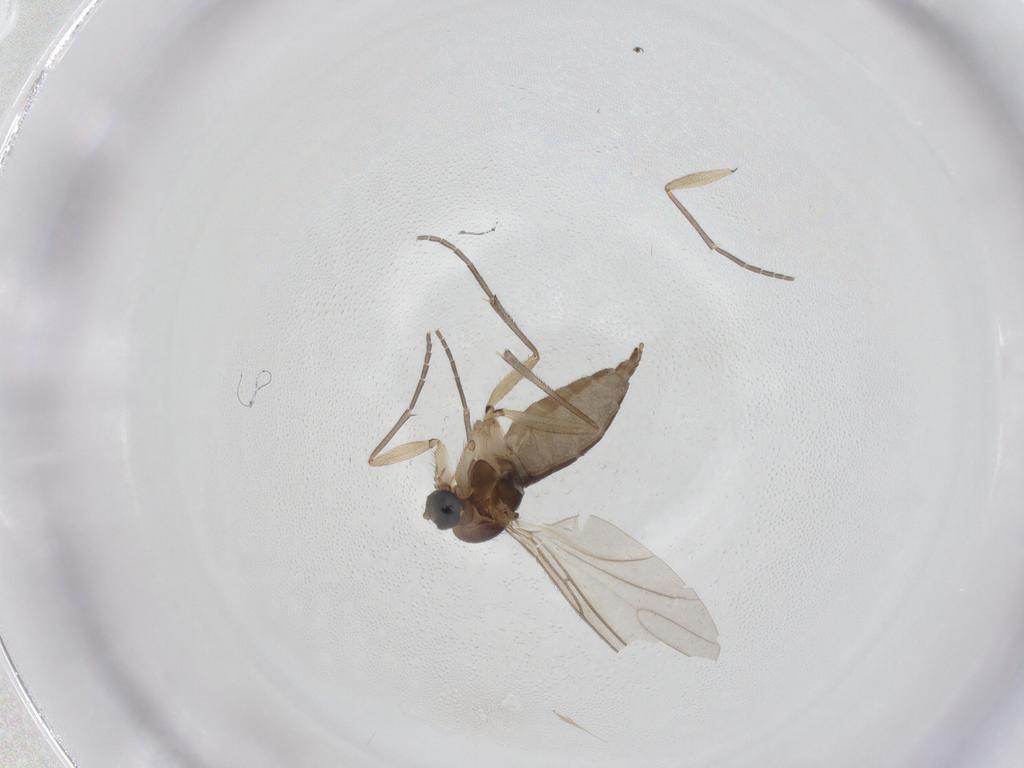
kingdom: Animalia
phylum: Arthropoda
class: Insecta
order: Diptera
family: Sciaridae
